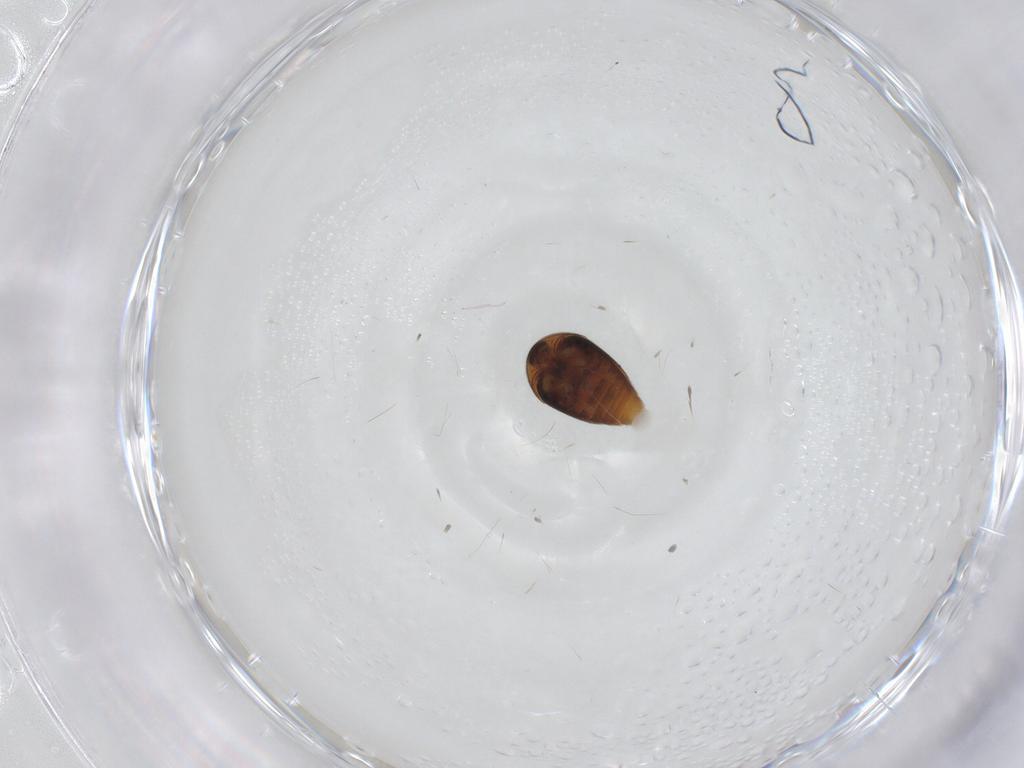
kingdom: Animalia
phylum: Arthropoda
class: Insecta
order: Coleoptera
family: Corylophidae
